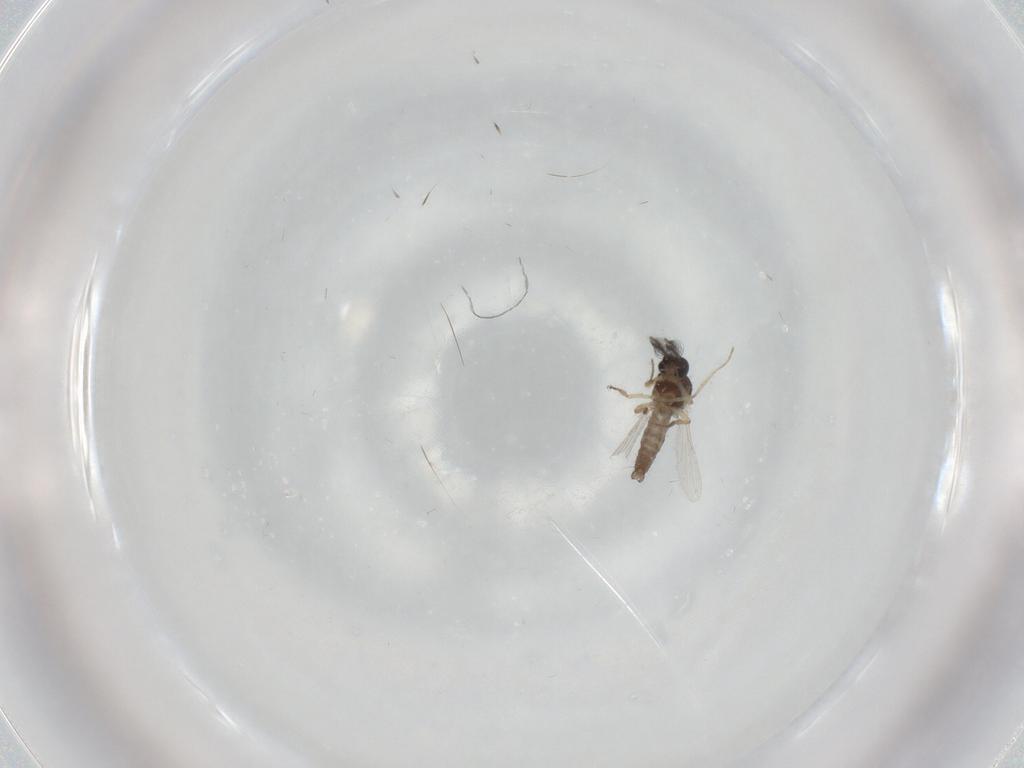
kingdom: Animalia
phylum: Arthropoda
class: Insecta
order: Diptera
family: Ceratopogonidae
